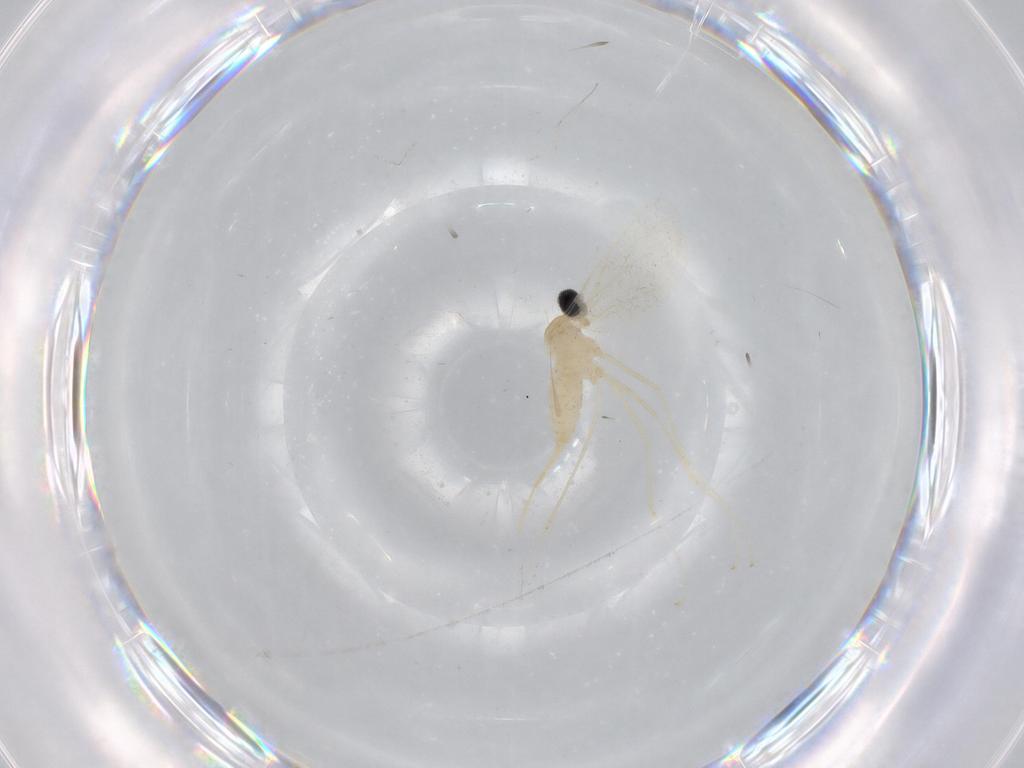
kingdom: Animalia
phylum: Arthropoda
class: Insecta
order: Diptera
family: Cecidomyiidae
